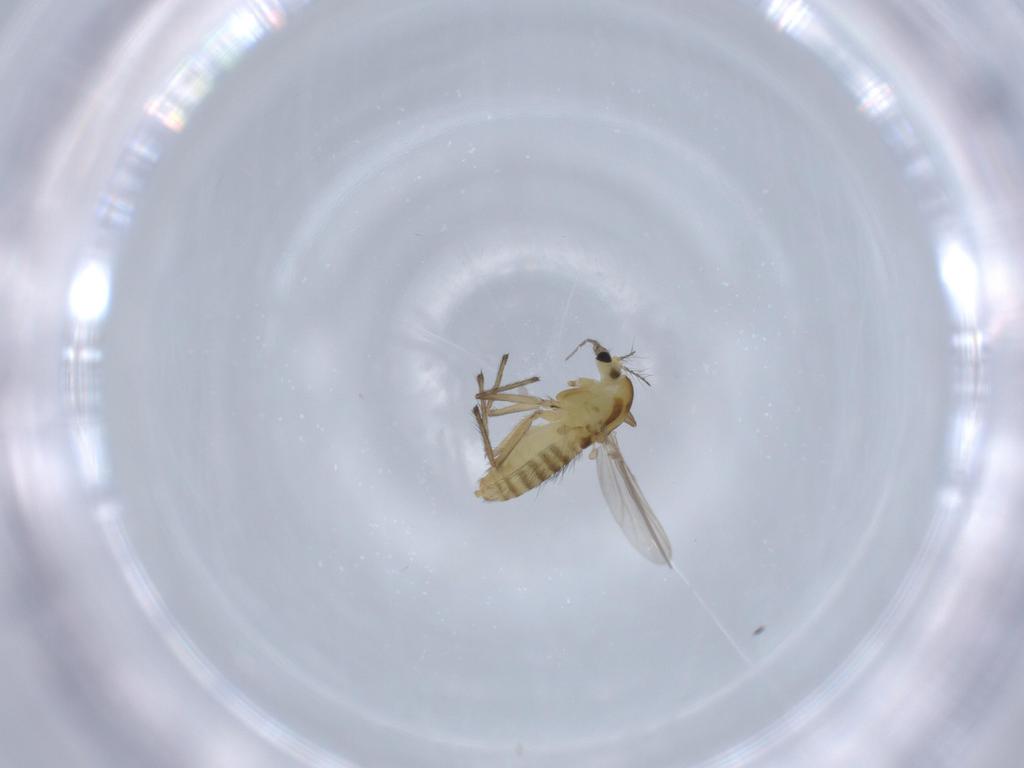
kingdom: Animalia
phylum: Arthropoda
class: Insecta
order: Diptera
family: Chironomidae
